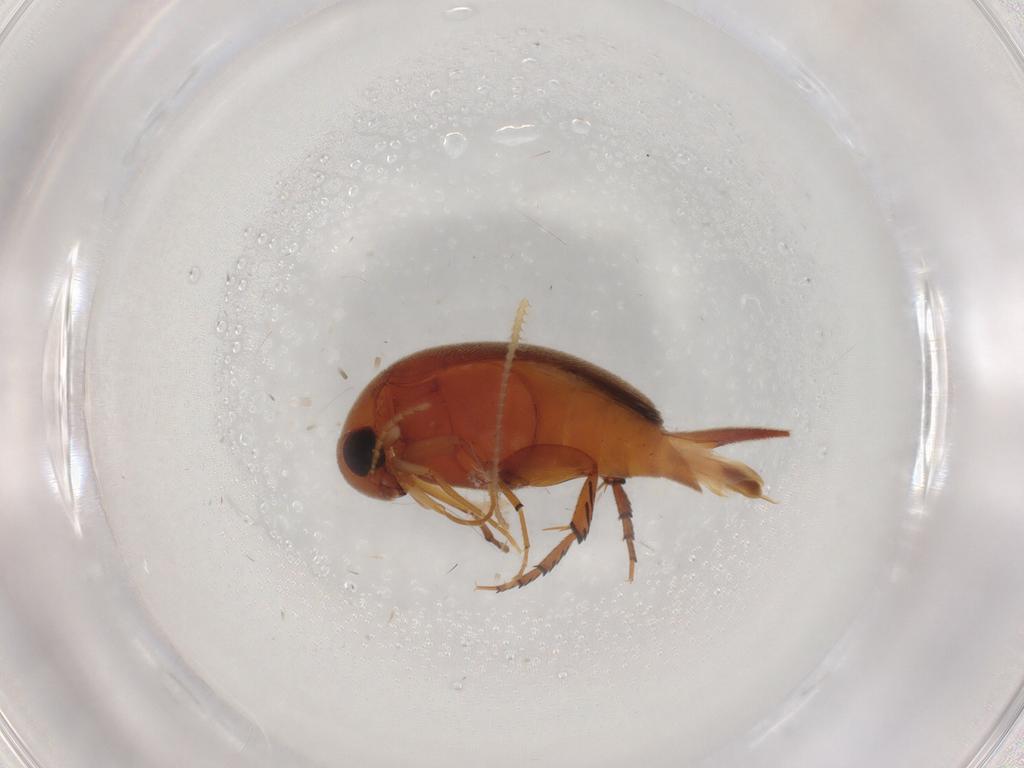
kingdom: Animalia
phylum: Arthropoda
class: Insecta
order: Coleoptera
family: Mordellidae
